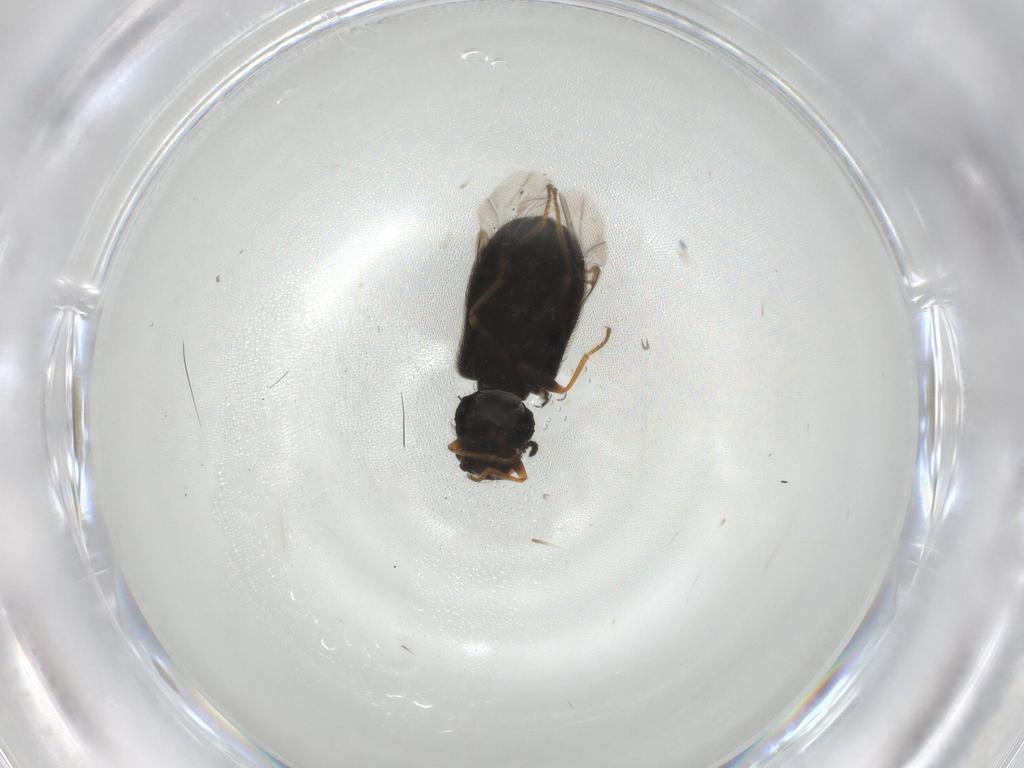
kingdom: Animalia
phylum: Arthropoda
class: Insecta
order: Coleoptera
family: Melyridae
